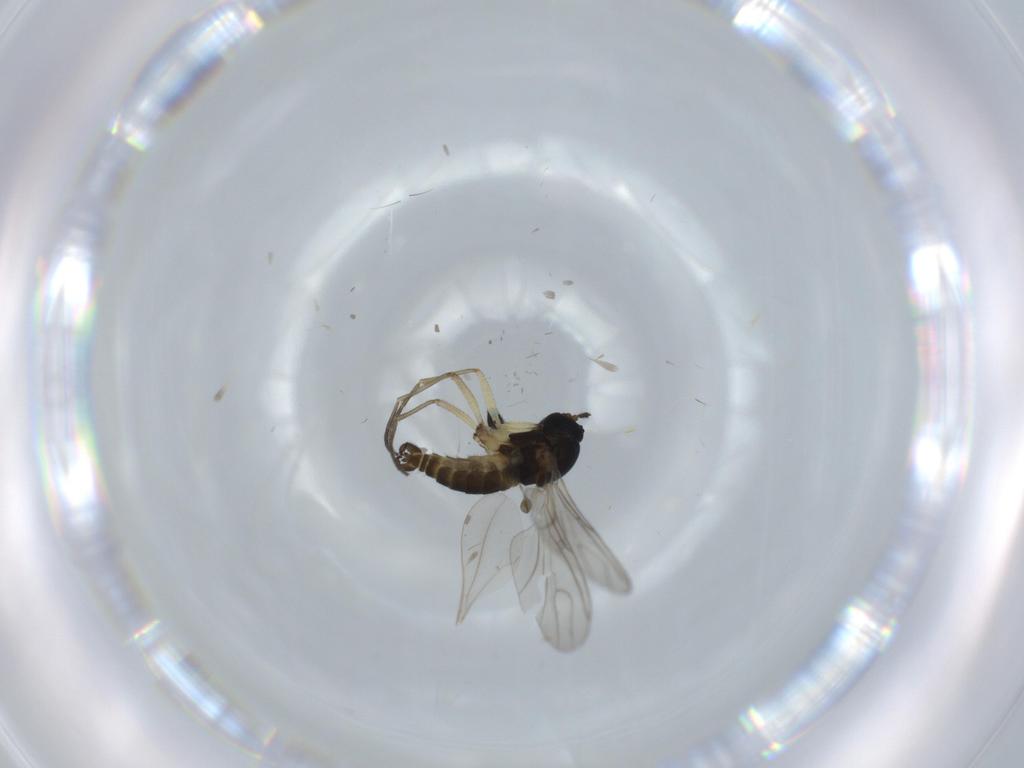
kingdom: Animalia
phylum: Arthropoda
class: Insecta
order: Diptera
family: Sciaridae
